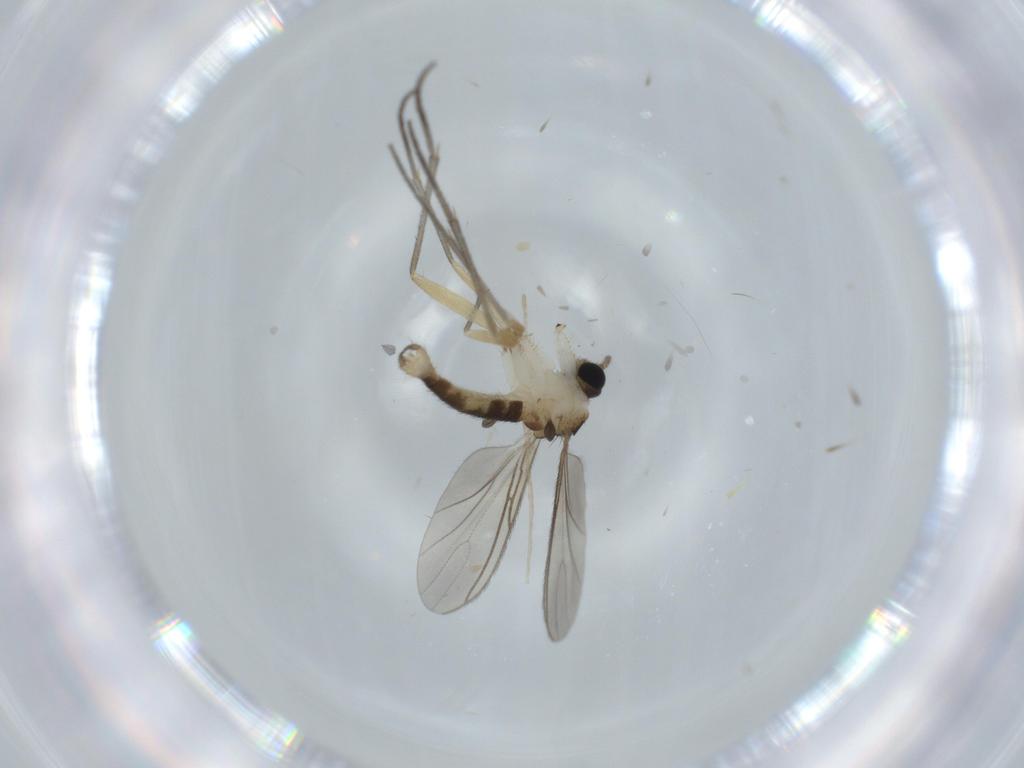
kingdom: Animalia
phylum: Arthropoda
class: Insecta
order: Diptera
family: Sciaridae
